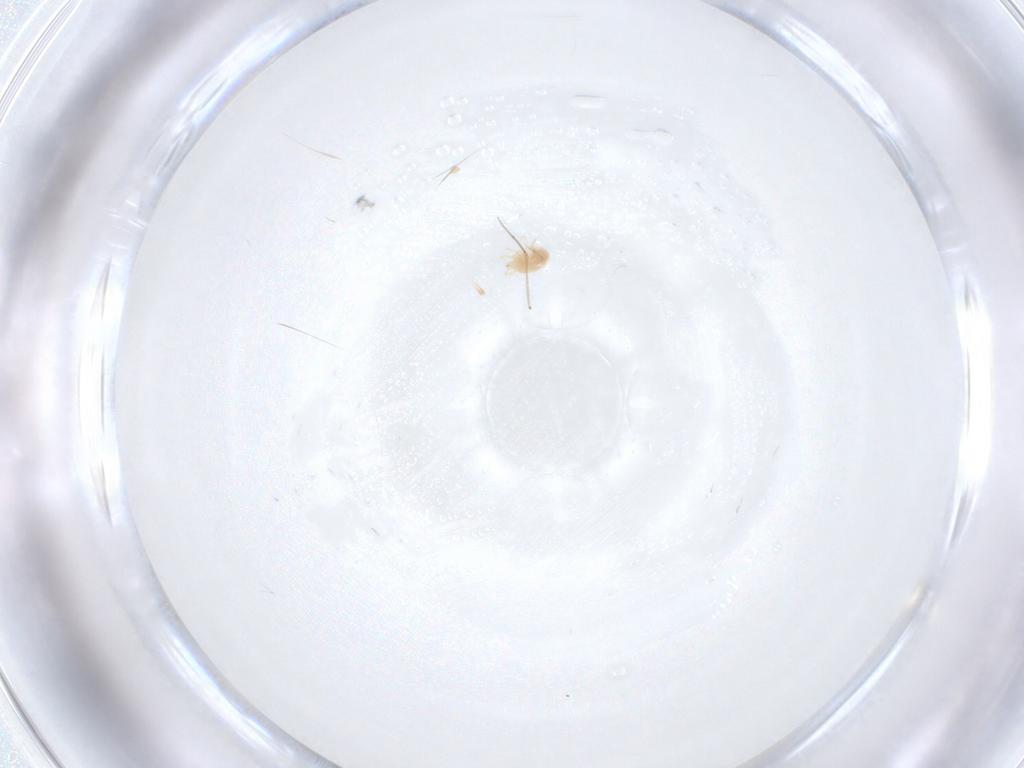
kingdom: Animalia
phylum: Arthropoda
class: Arachnida
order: Trombidiformes
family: Tetranychidae
